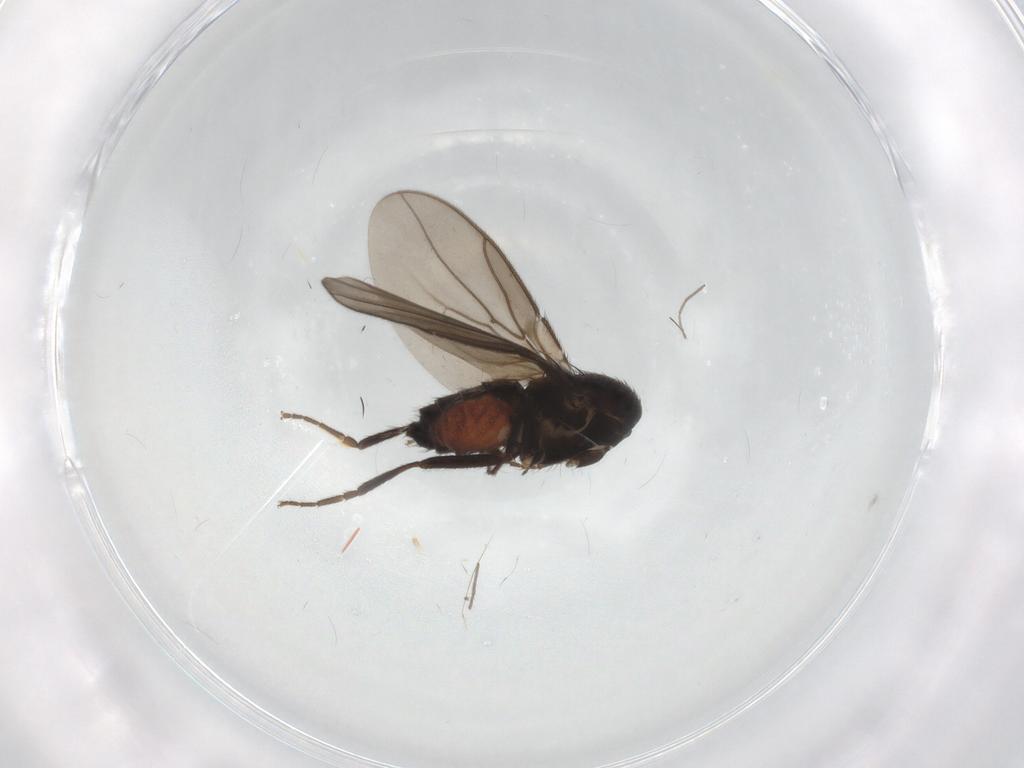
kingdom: Animalia
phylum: Arthropoda
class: Insecta
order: Diptera
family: Sphaeroceridae
